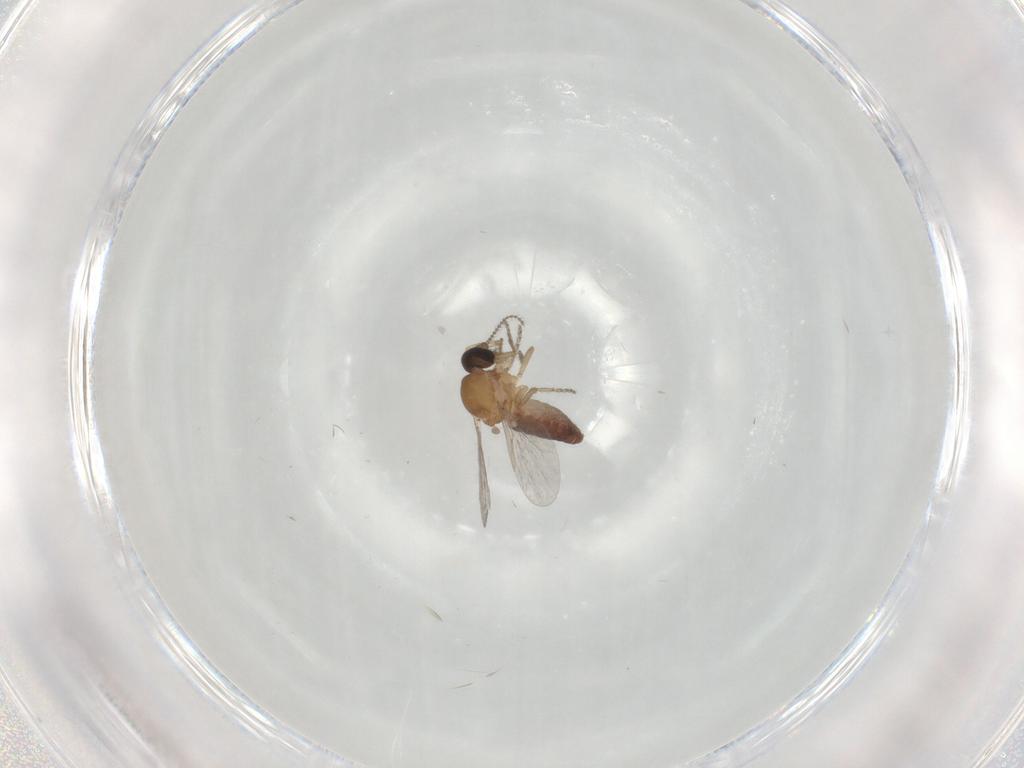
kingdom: Animalia
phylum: Arthropoda
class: Insecta
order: Diptera
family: Ceratopogonidae
